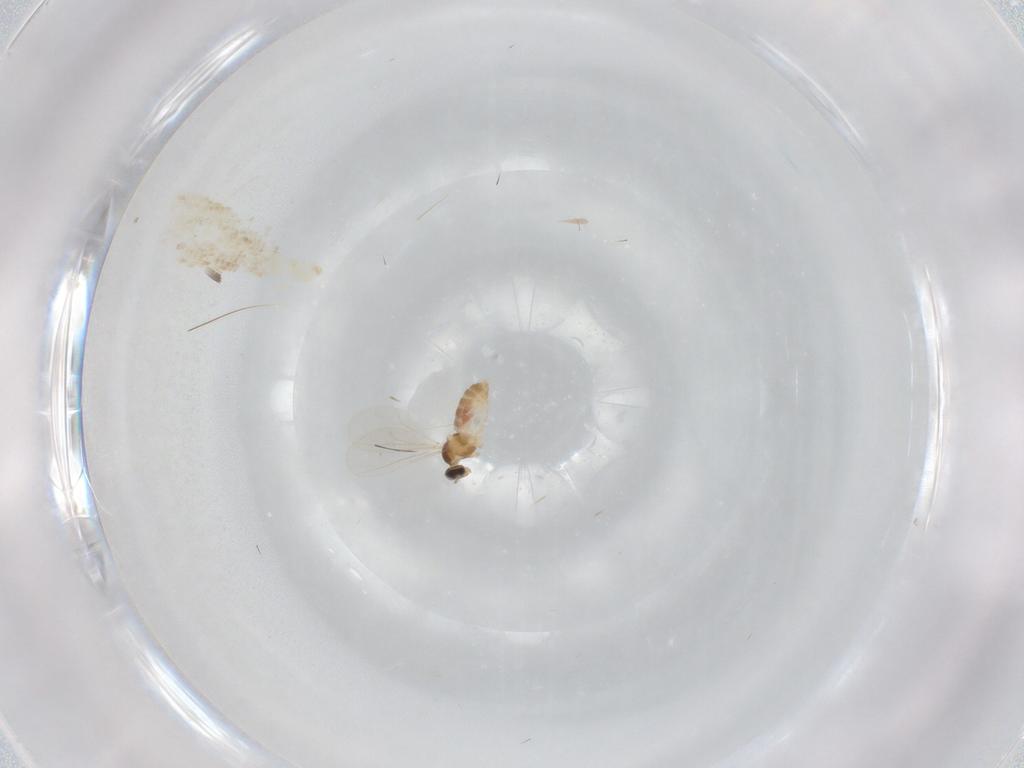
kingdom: Animalia
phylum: Arthropoda
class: Insecta
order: Diptera
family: Cecidomyiidae
